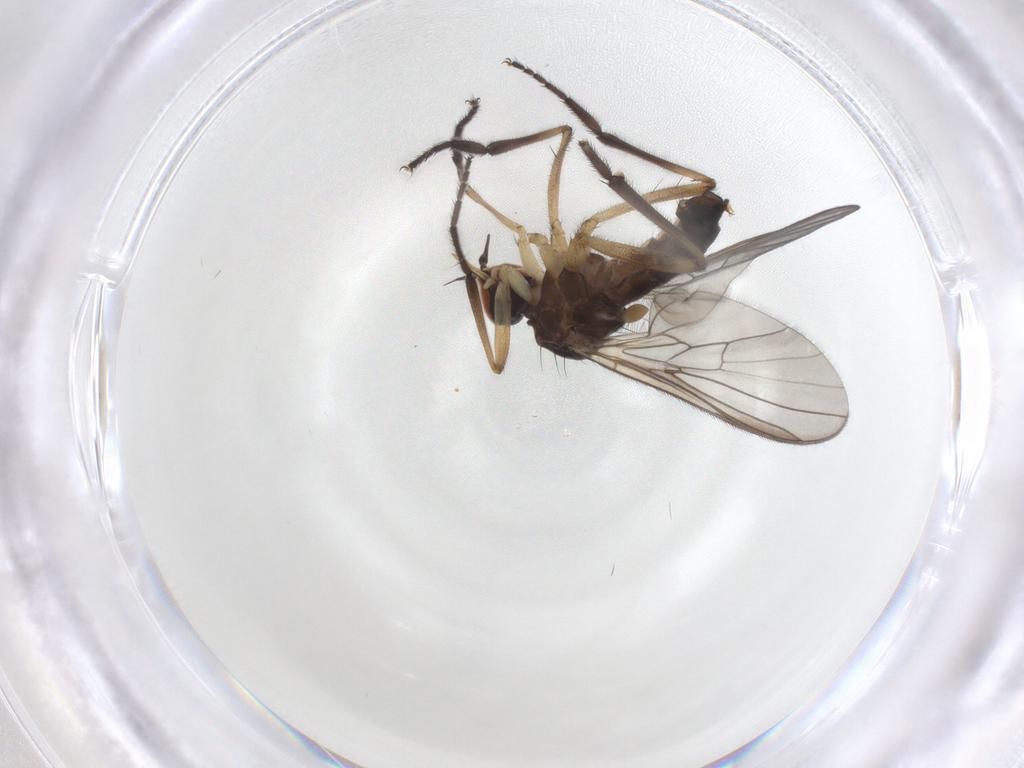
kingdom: Animalia
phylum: Arthropoda
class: Insecta
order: Diptera
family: Empididae
